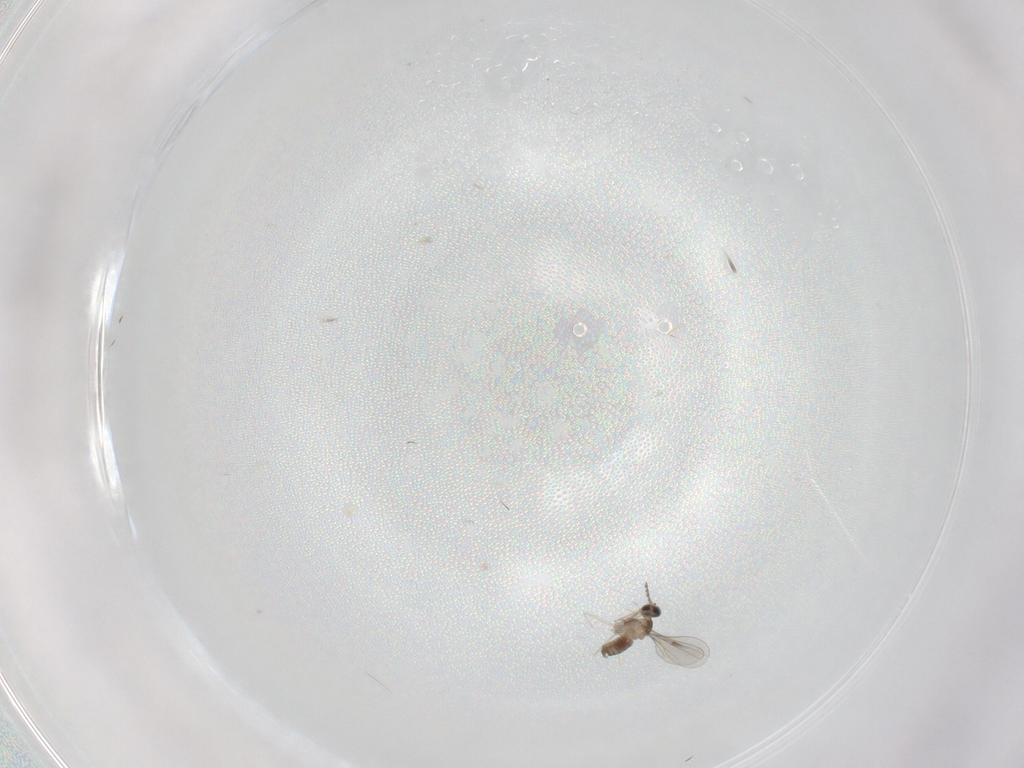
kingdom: Animalia
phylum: Arthropoda
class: Insecta
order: Diptera
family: Cecidomyiidae
